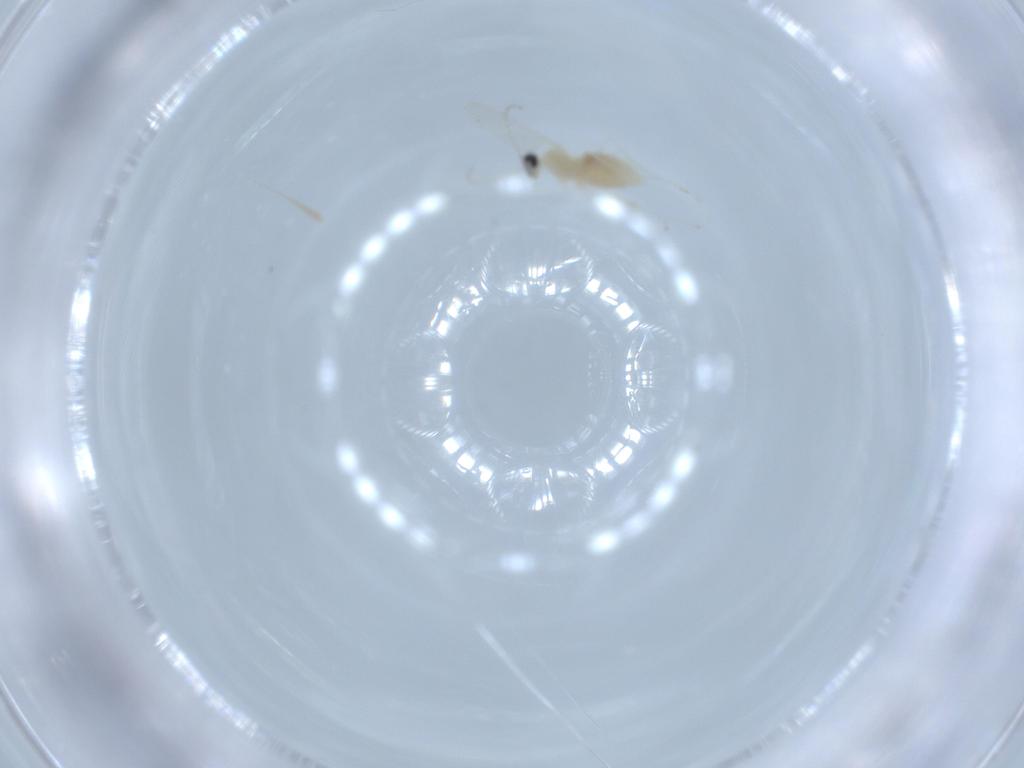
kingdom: Animalia
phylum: Arthropoda
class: Insecta
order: Diptera
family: Cecidomyiidae
